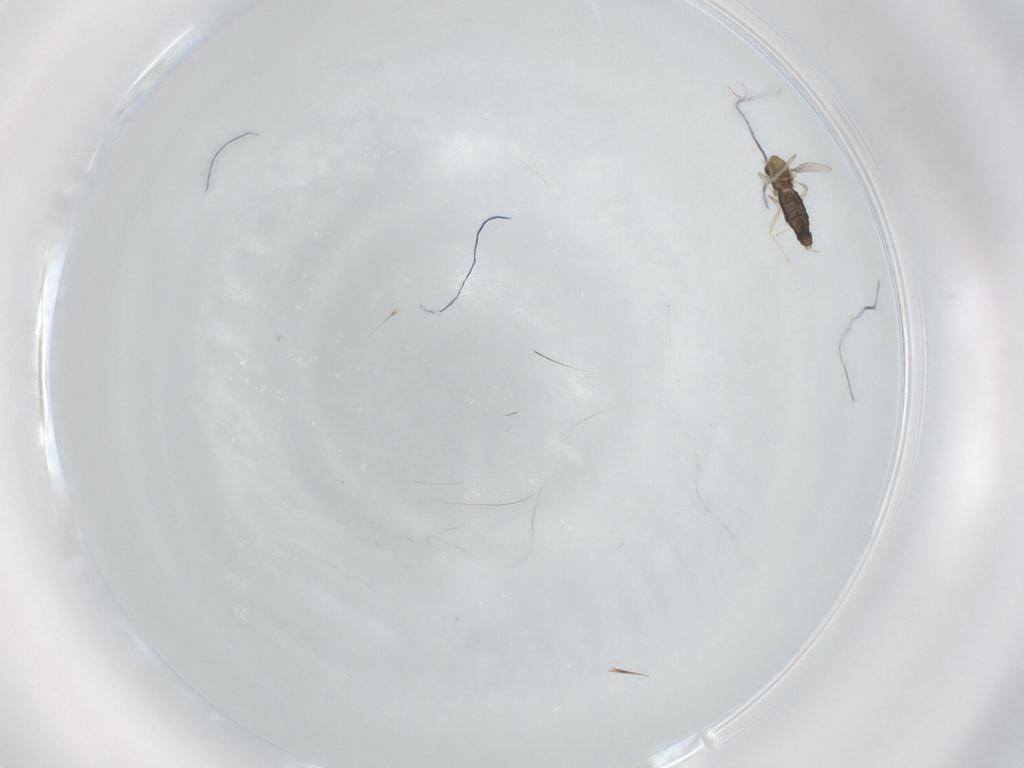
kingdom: Animalia
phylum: Arthropoda
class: Insecta
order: Diptera
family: Chironomidae
